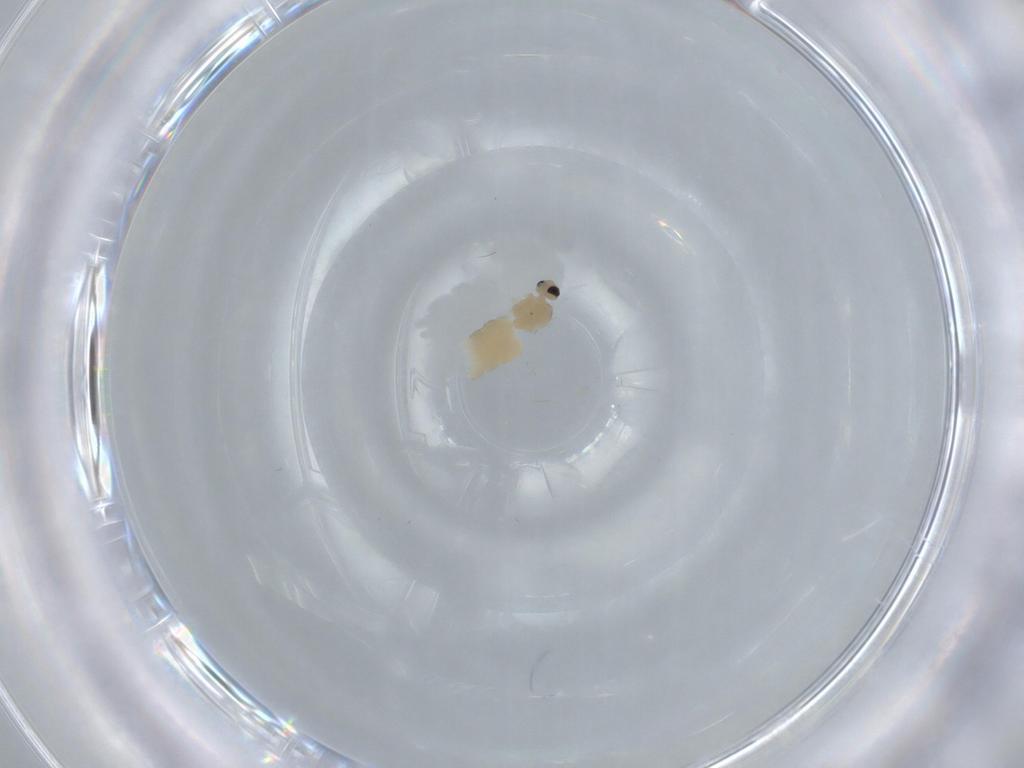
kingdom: Animalia
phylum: Arthropoda
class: Insecta
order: Diptera
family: Cecidomyiidae
